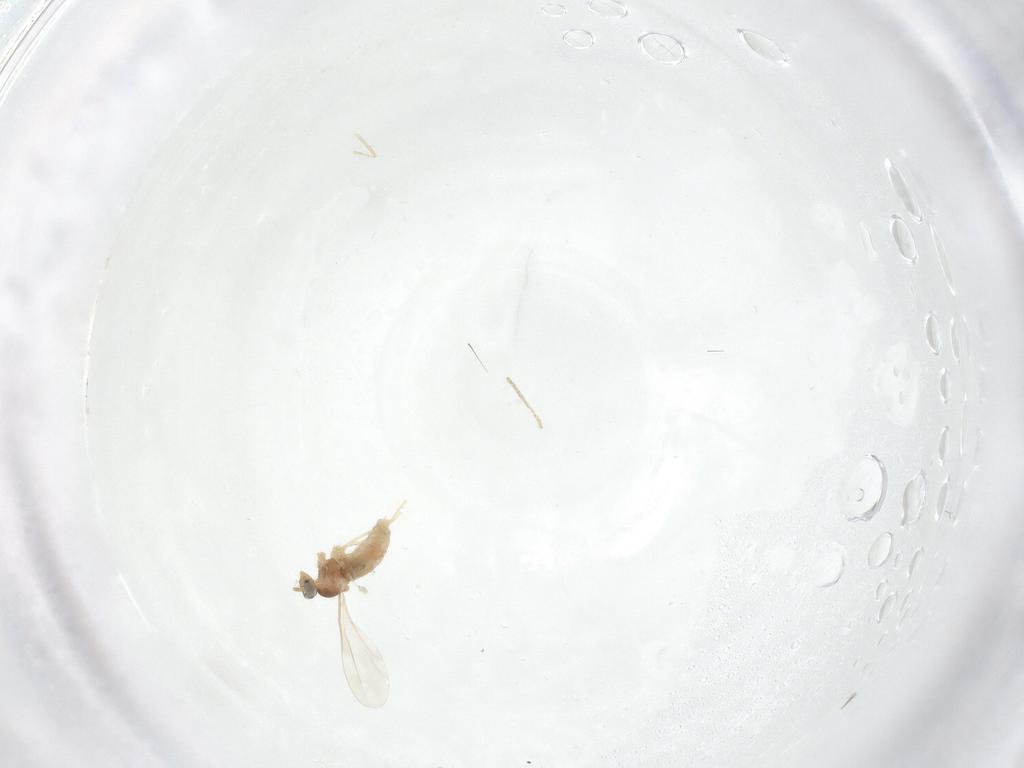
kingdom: Animalia
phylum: Arthropoda
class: Insecta
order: Diptera
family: Cecidomyiidae
